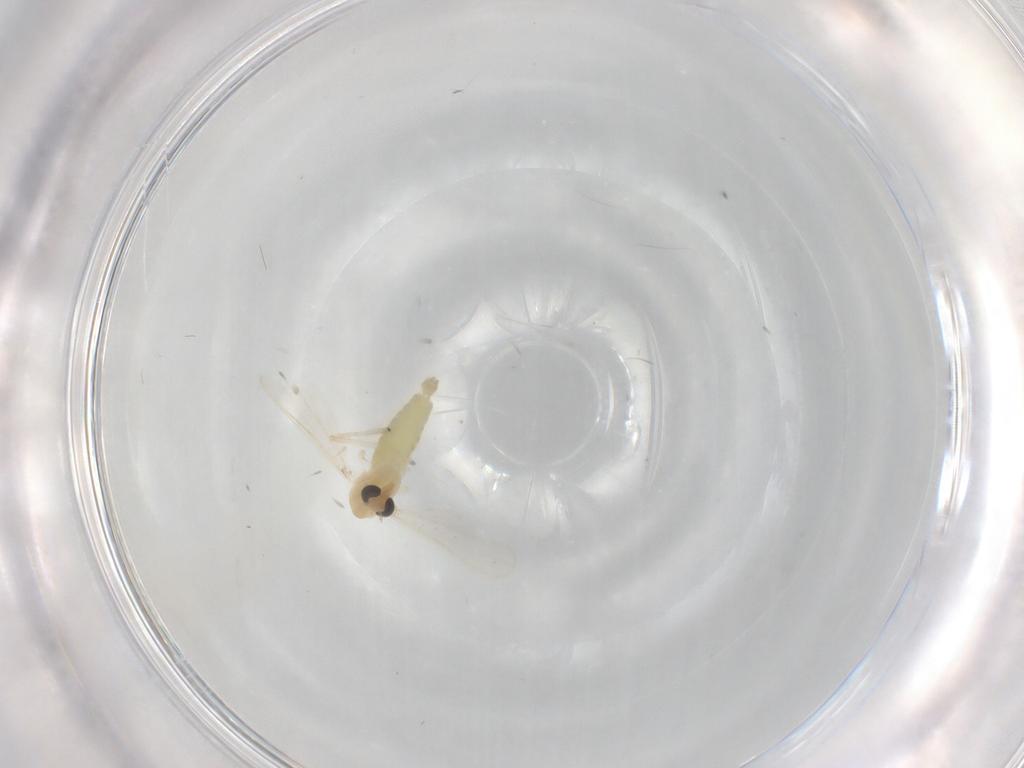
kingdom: Animalia
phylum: Arthropoda
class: Insecta
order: Diptera
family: Chironomidae
